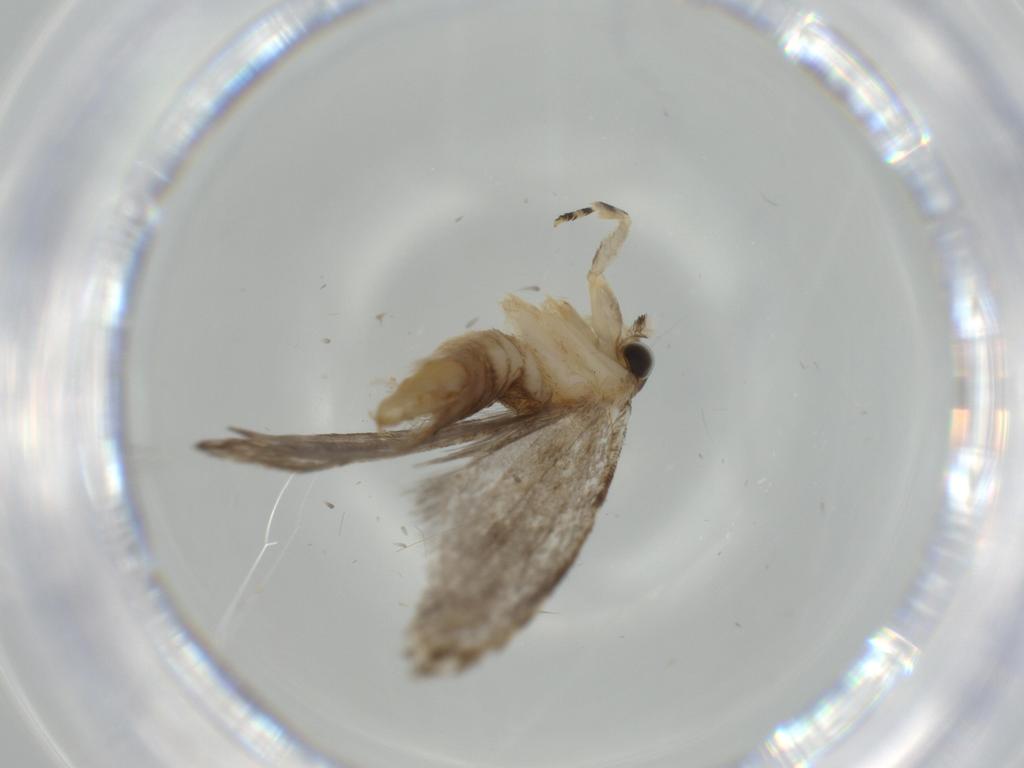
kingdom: Animalia
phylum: Arthropoda
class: Insecta
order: Lepidoptera
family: Tineidae
